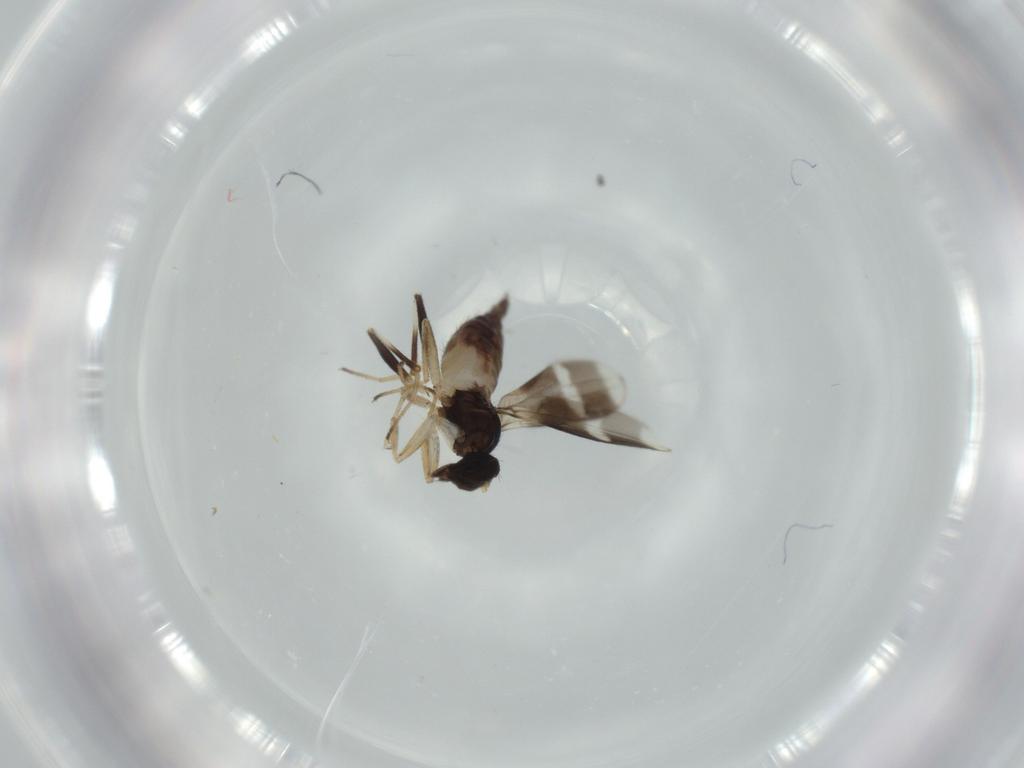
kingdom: Animalia
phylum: Arthropoda
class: Insecta
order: Diptera
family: Hybotidae
